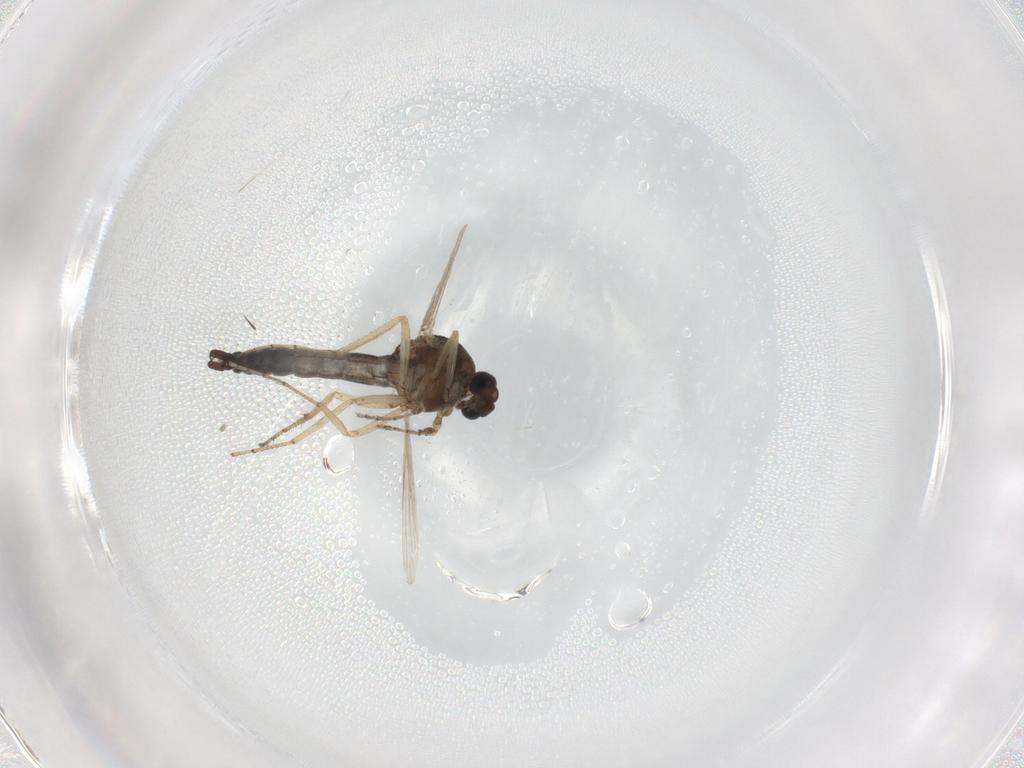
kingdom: Animalia
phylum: Arthropoda
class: Insecta
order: Diptera
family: Ceratopogonidae
